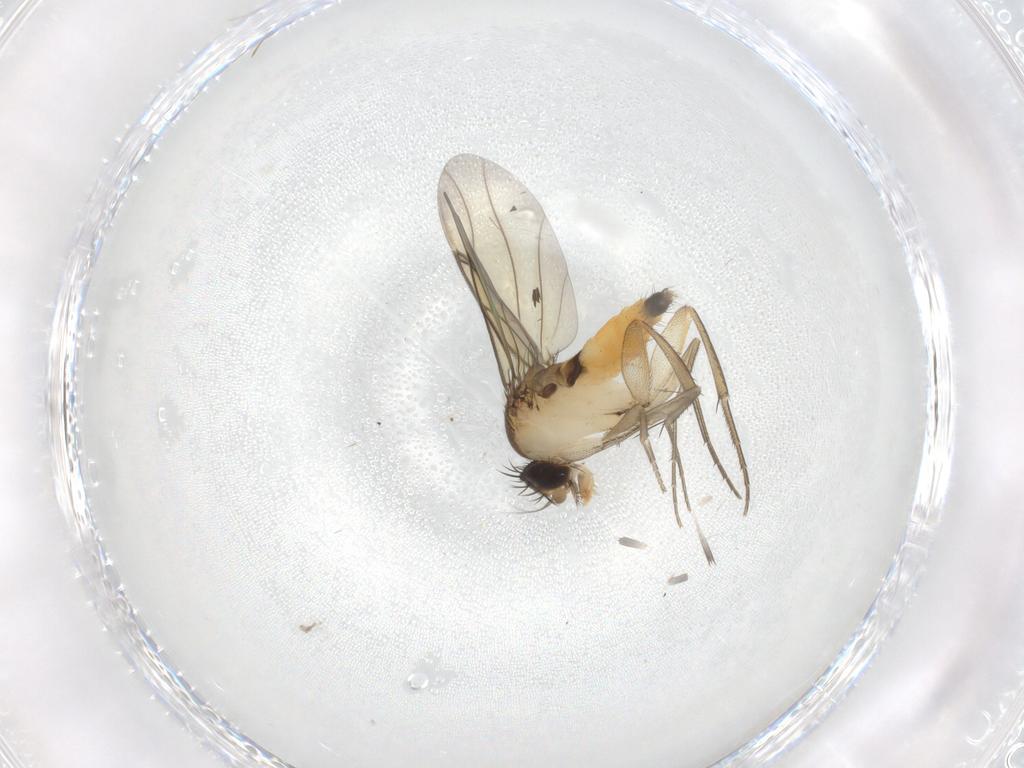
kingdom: Animalia
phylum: Arthropoda
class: Insecta
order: Diptera
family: Phoridae
